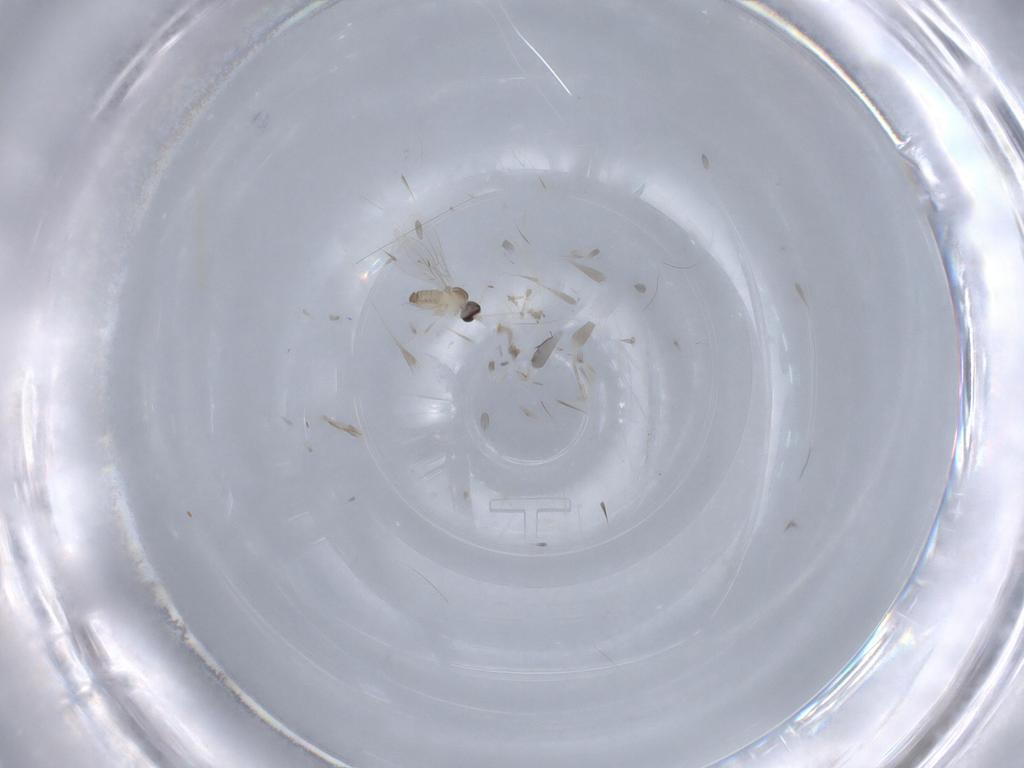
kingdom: Animalia
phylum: Arthropoda
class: Insecta
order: Diptera
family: Cecidomyiidae
